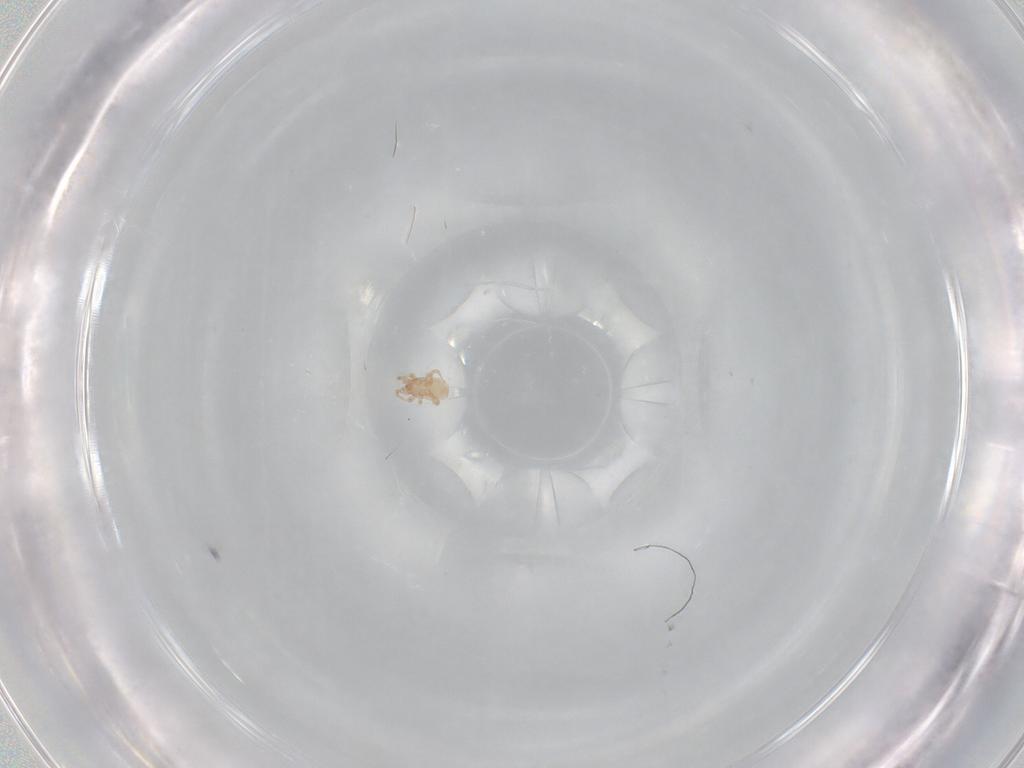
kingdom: Animalia
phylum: Arthropoda
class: Arachnida
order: Mesostigmata
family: Ascidae
